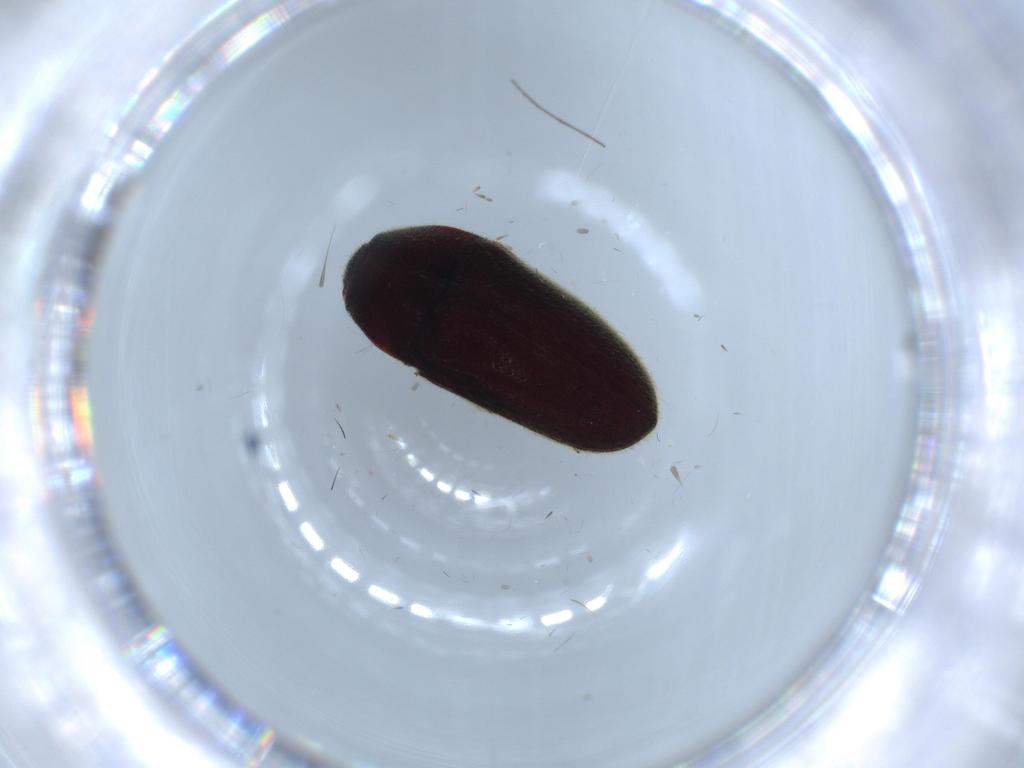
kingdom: Animalia
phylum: Arthropoda
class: Insecta
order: Coleoptera
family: Throscidae
